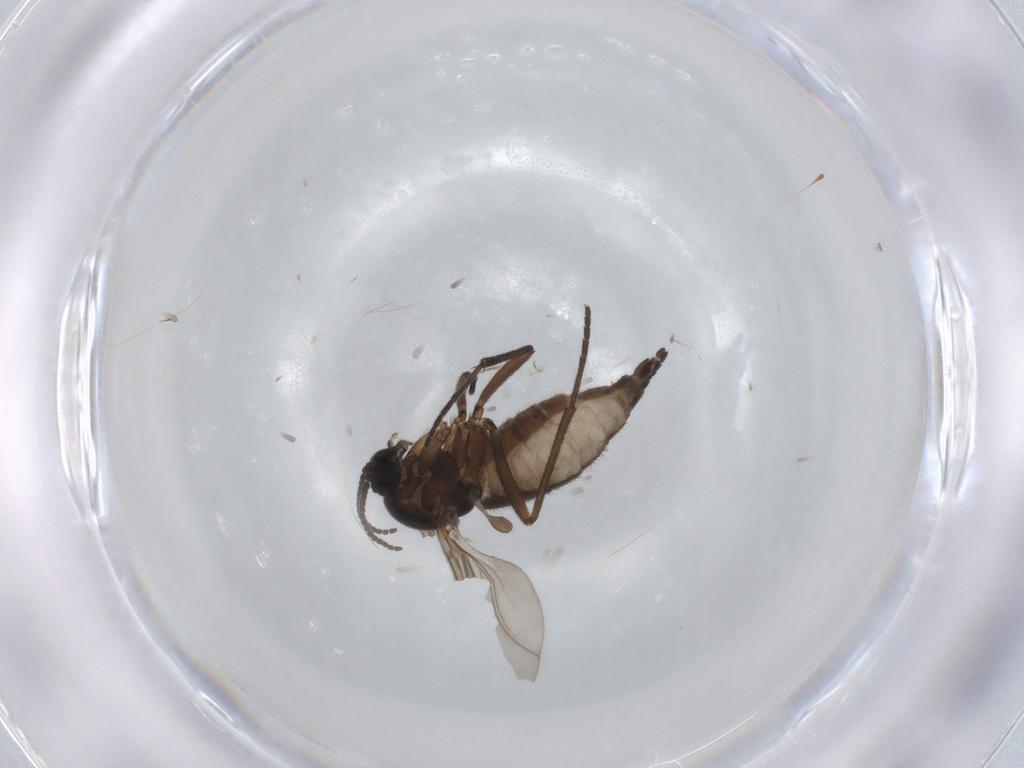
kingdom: Animalia
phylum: Arthropoda
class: Insecta
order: Diptera
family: Sciaridae
